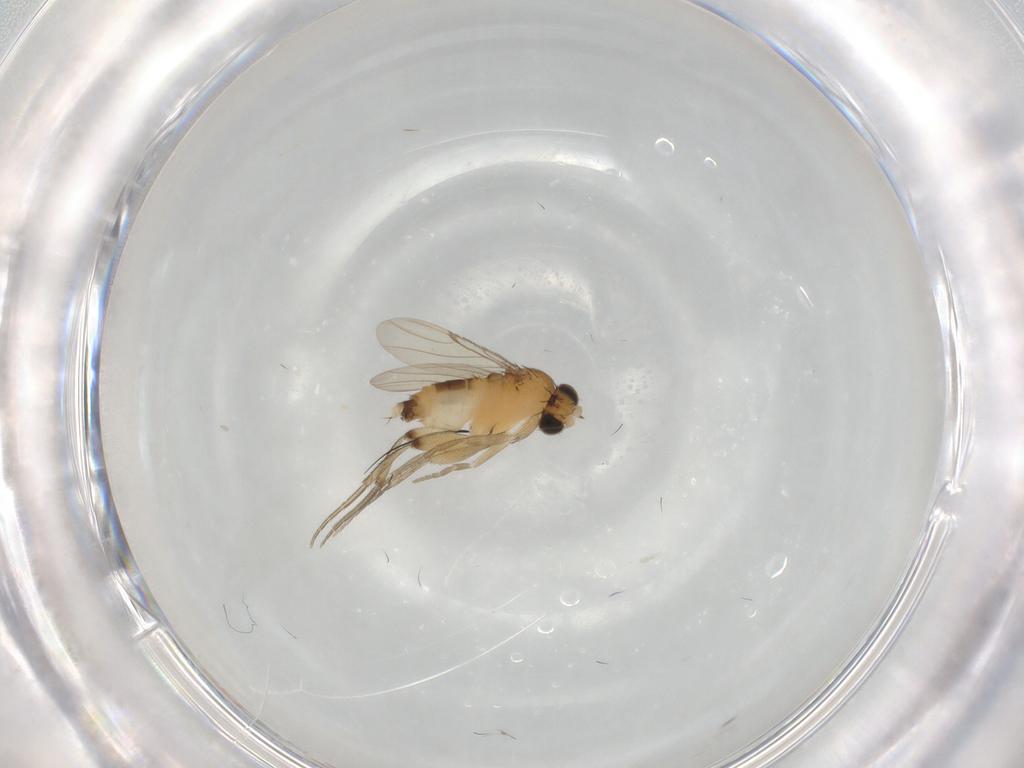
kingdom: Animalia
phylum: Arthropoda
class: Insecta
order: Diptera
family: Phoridae
